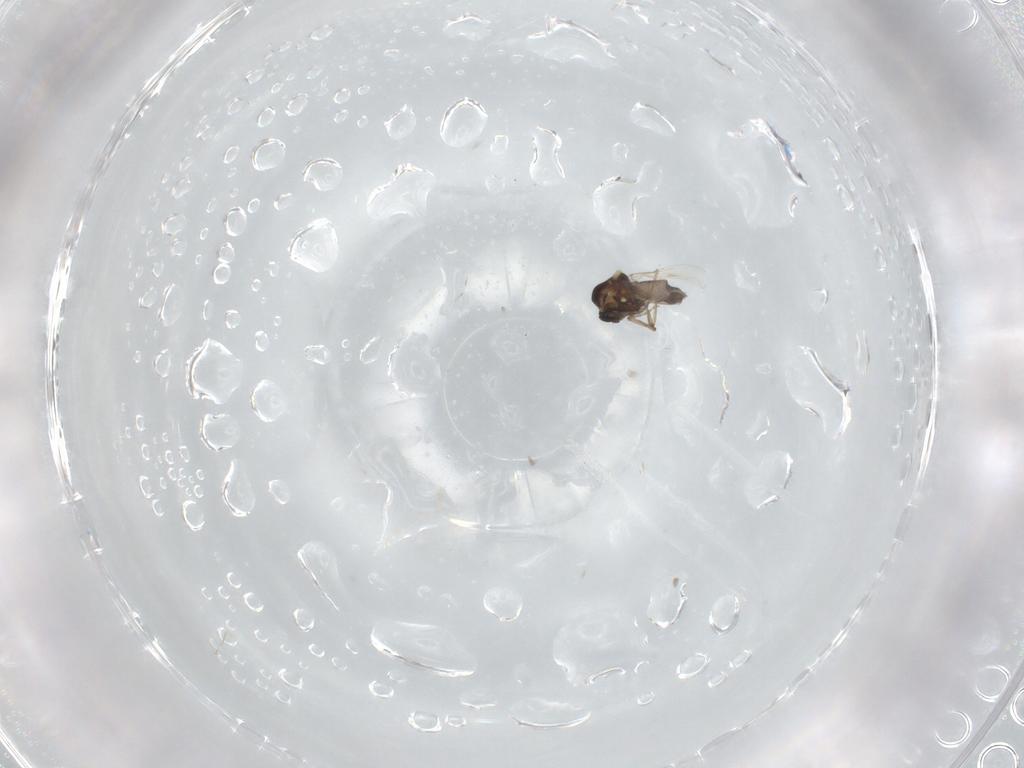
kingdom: Animalia
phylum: Arthropoda
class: Insecta
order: Diptera
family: Ceratopogonidae
